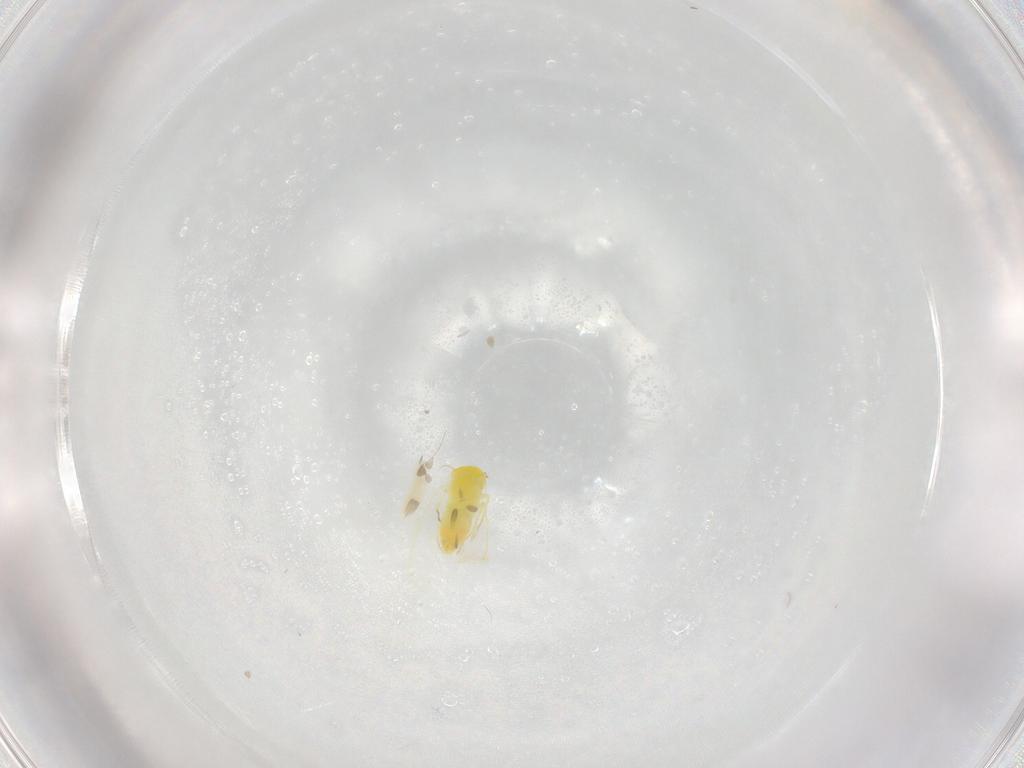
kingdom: Animalia
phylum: Arthropoda
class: Insecta
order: Hemiptera
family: Aleyrodidae
